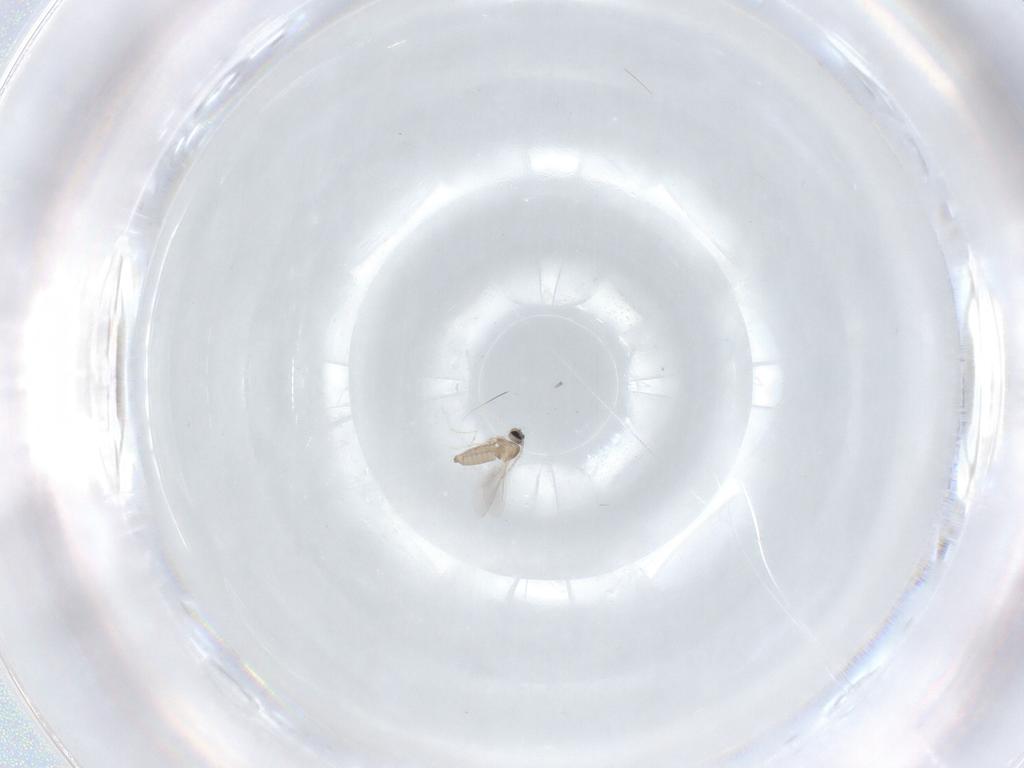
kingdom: Animalia
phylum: Arthropoda
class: Insecta
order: Diptera
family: Cecidomyiidae
